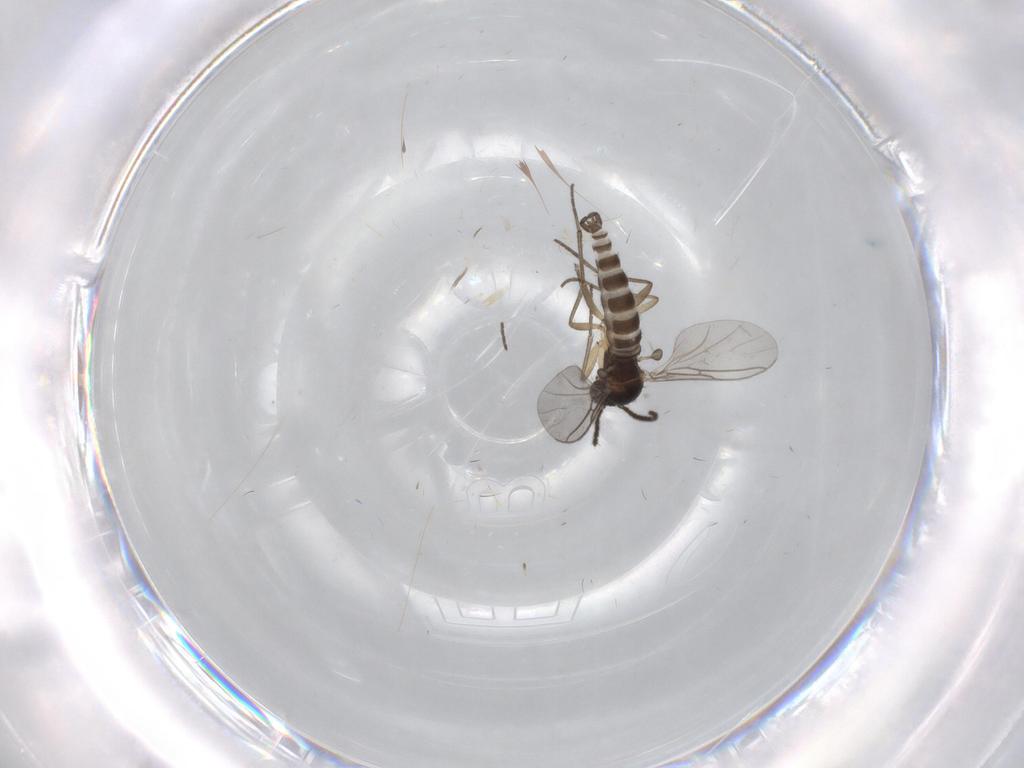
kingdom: Animalia
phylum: Arthropoda
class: Insecta
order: Diptera
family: Sciaridae
